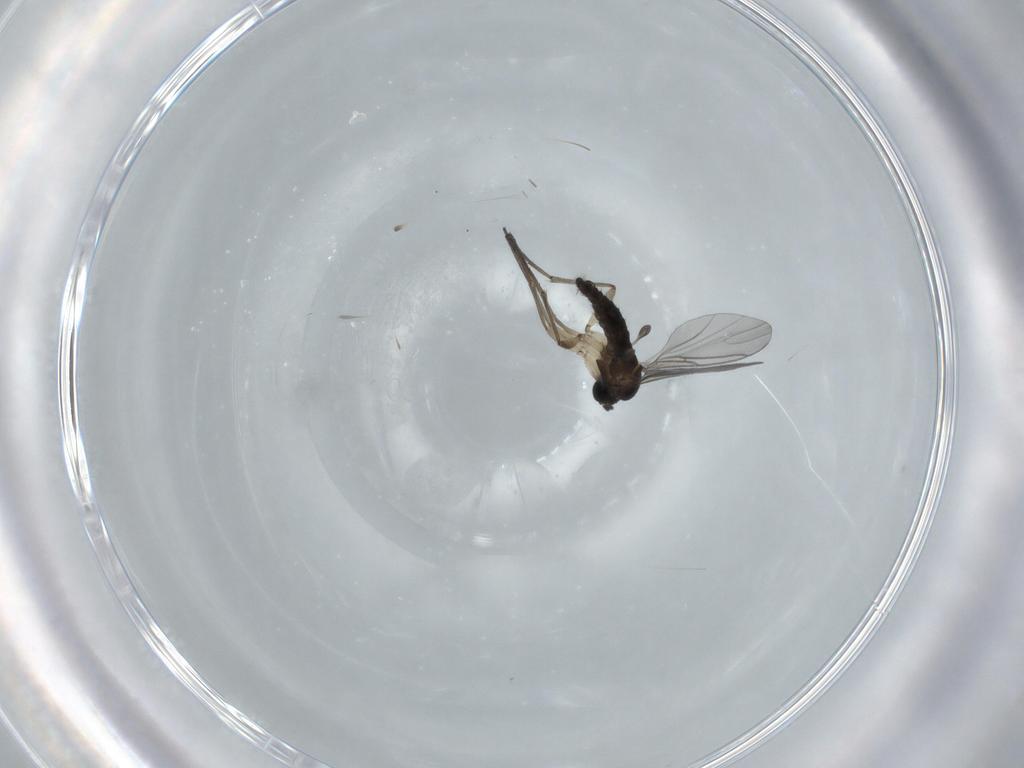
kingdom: Animalia
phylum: Arthropoda
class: Insecta
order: Diptera
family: Sciaridae
